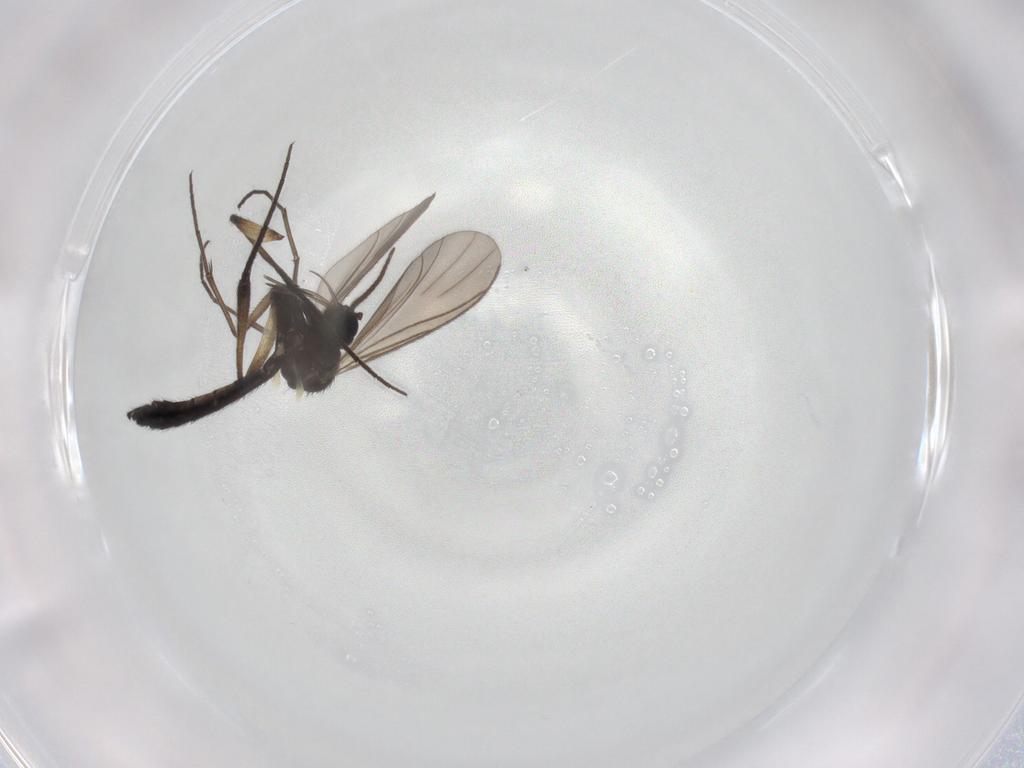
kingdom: Animalia
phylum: Arthropoda
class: Insecta
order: Diptera
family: Keroplatidae
